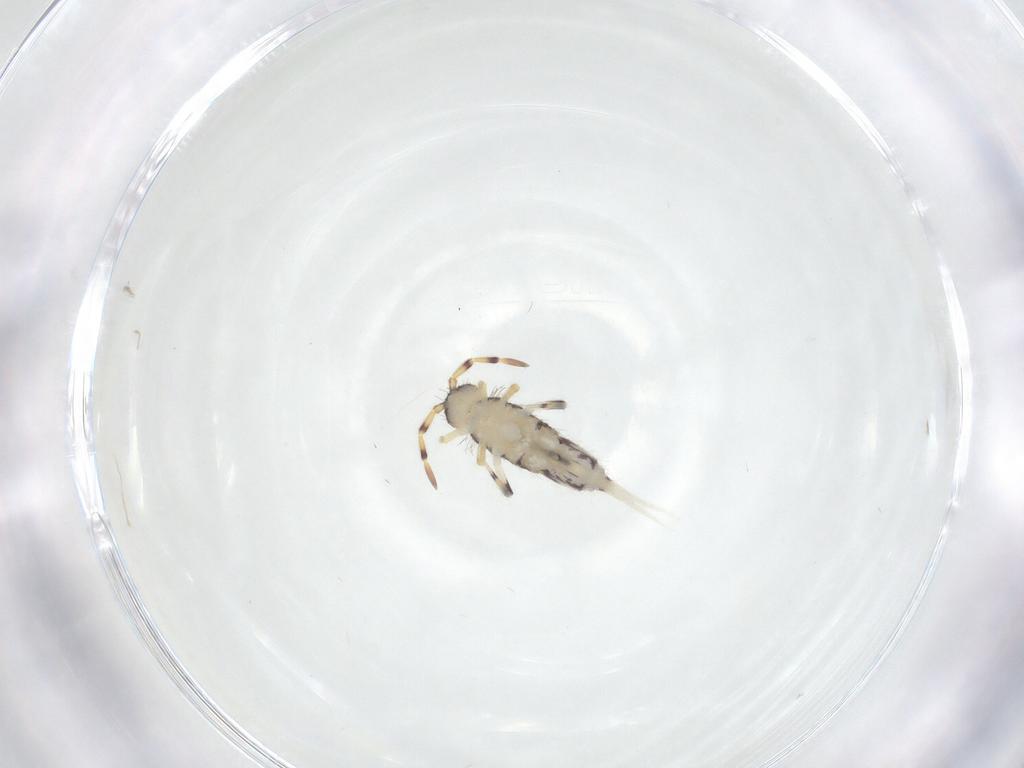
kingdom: Animalia
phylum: Arthropoda
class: Collembola
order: Entomobryomorpha
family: Isotomidae
